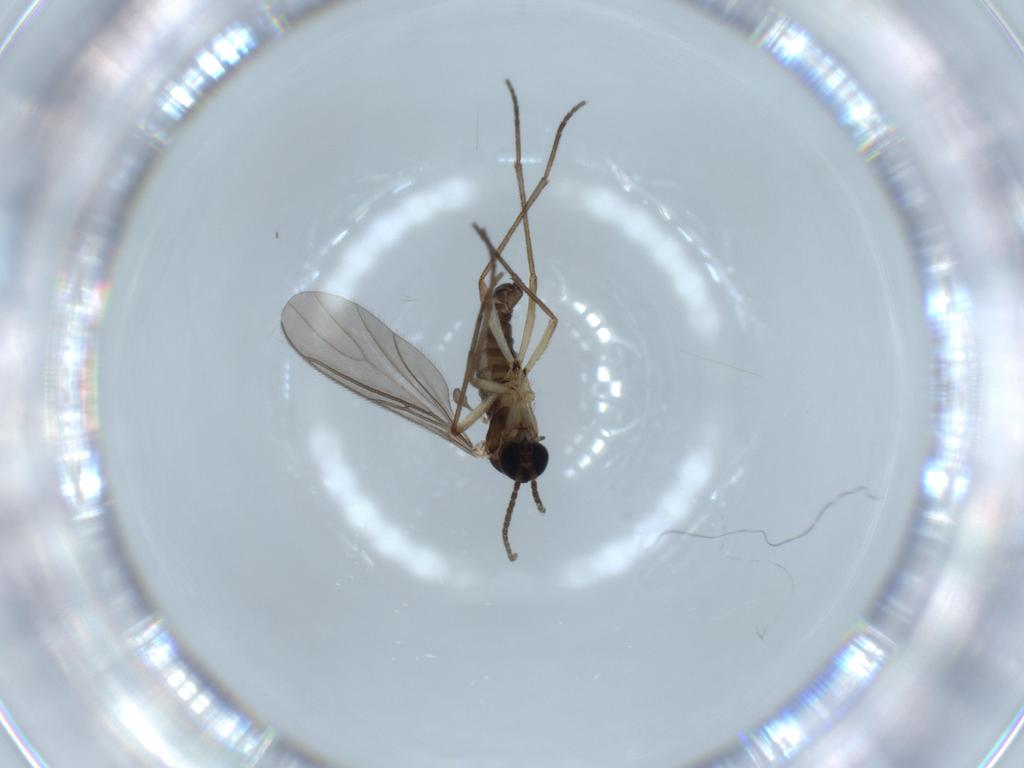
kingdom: Animalia
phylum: Arthropoda
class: Insecta
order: Diptera
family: Sciaridae
